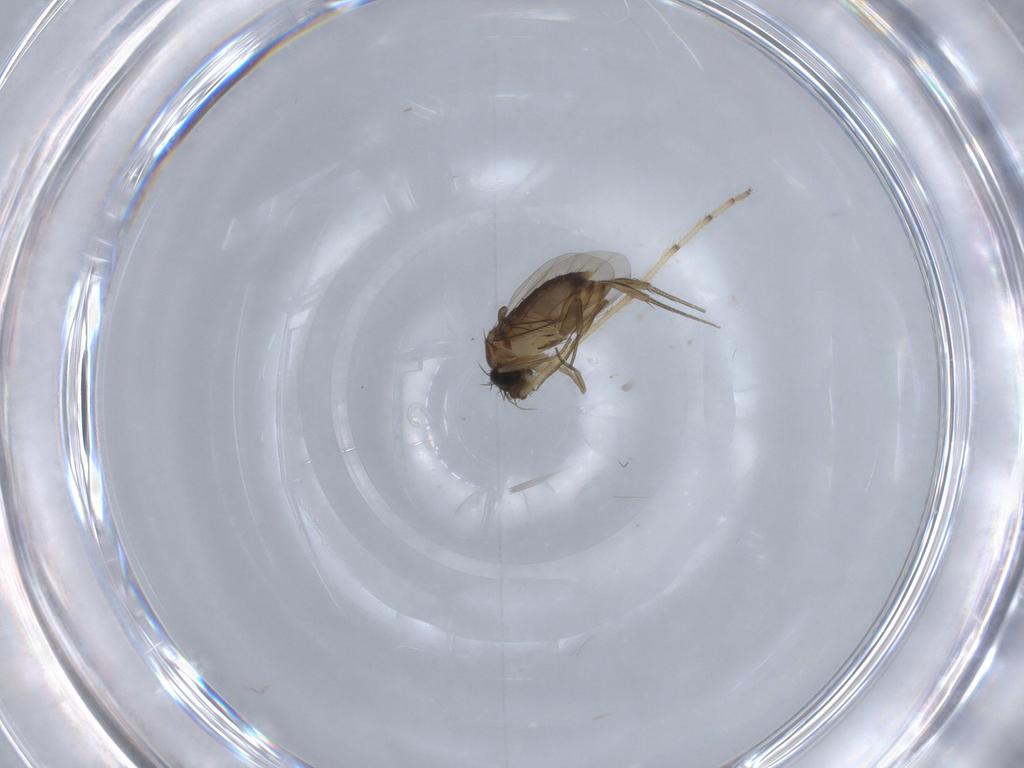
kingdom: Animalia
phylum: Arthropoda
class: Insecta
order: Diptera
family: Phoridae
